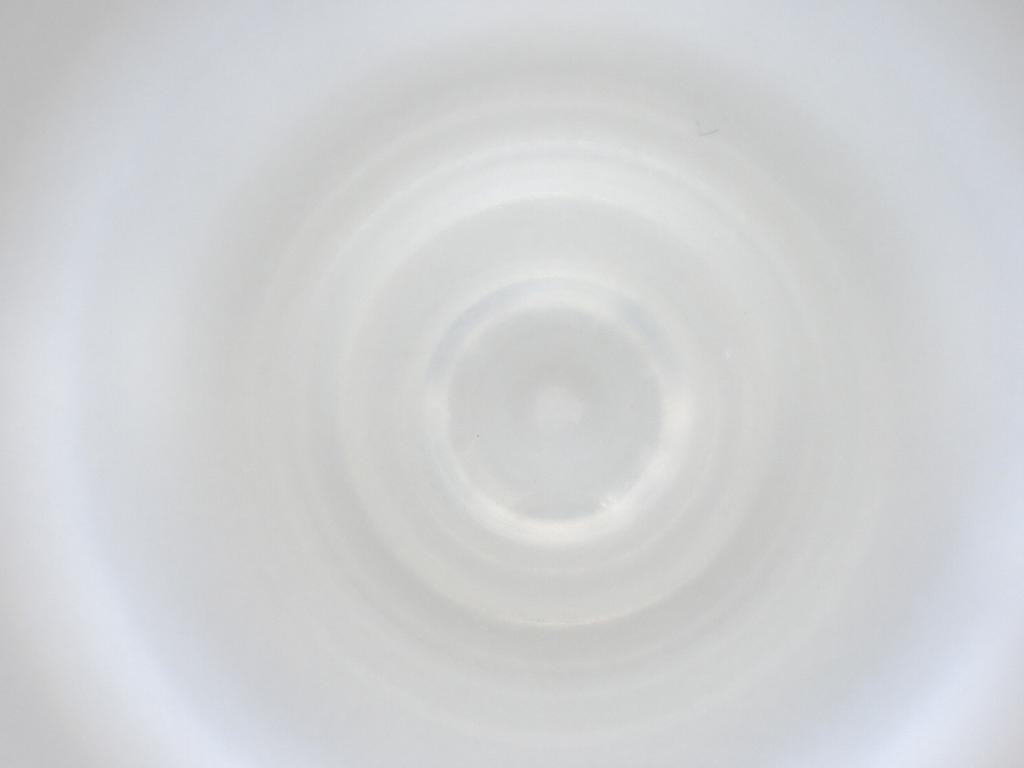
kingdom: Animalia
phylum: Arthropoda
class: Insecta
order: Diptera
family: Cecidomyiidae
